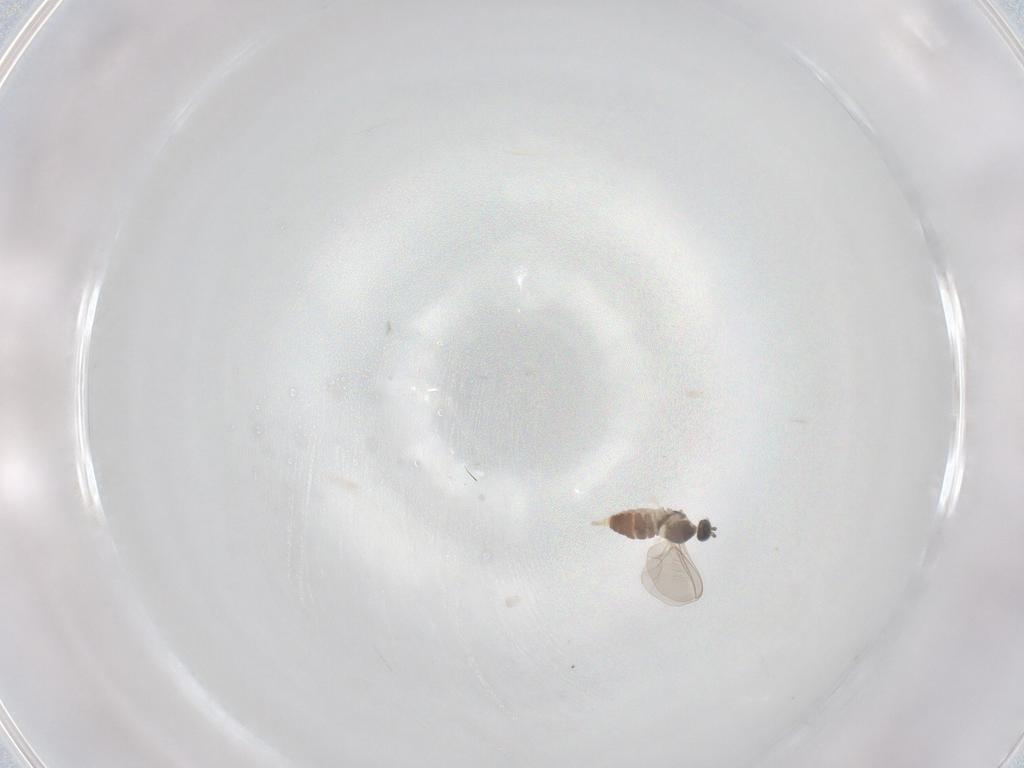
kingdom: Animalia
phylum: Arthropoda
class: Insecta
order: Diptera
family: Cecidomyiidae
